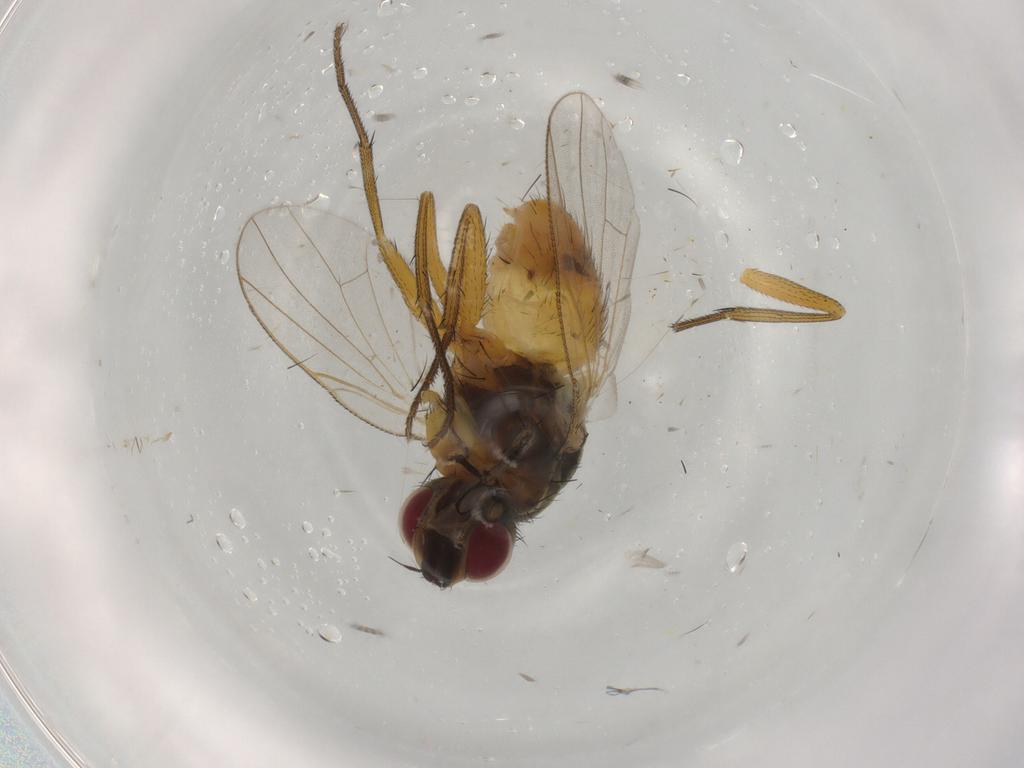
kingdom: Animalia
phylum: Arthropoda
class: Insecta
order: Diptera
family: Muscidae
